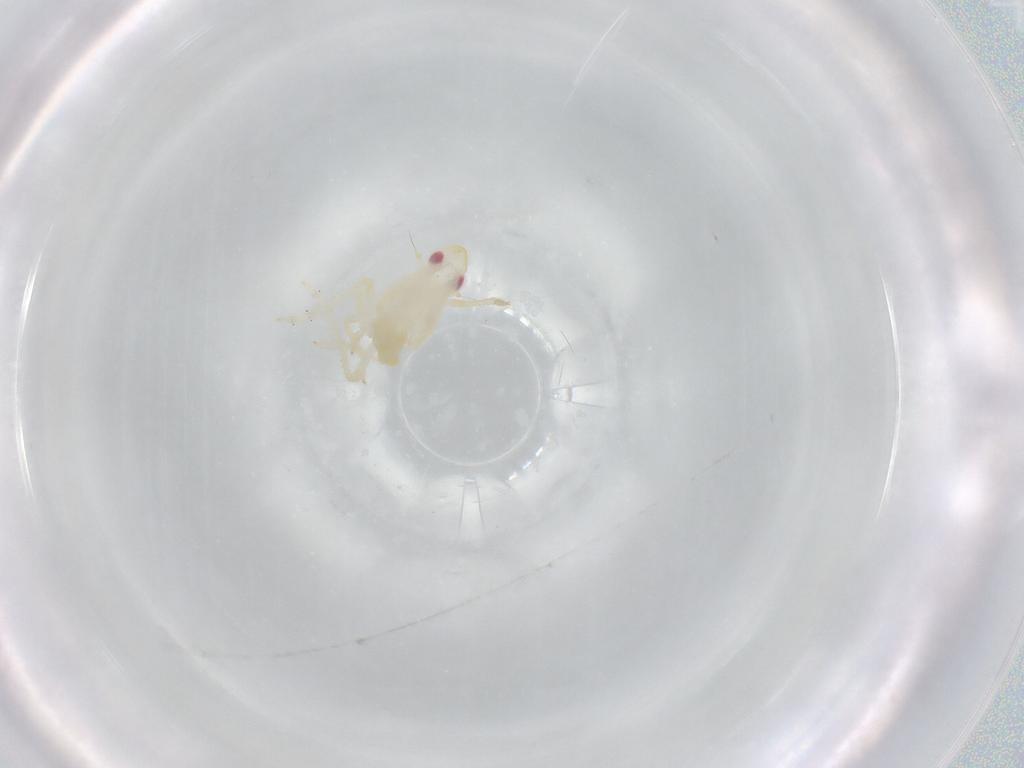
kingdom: Animalia
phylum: Arthropoda
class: Insecta
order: Hemiptera
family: Tropiduchidae
